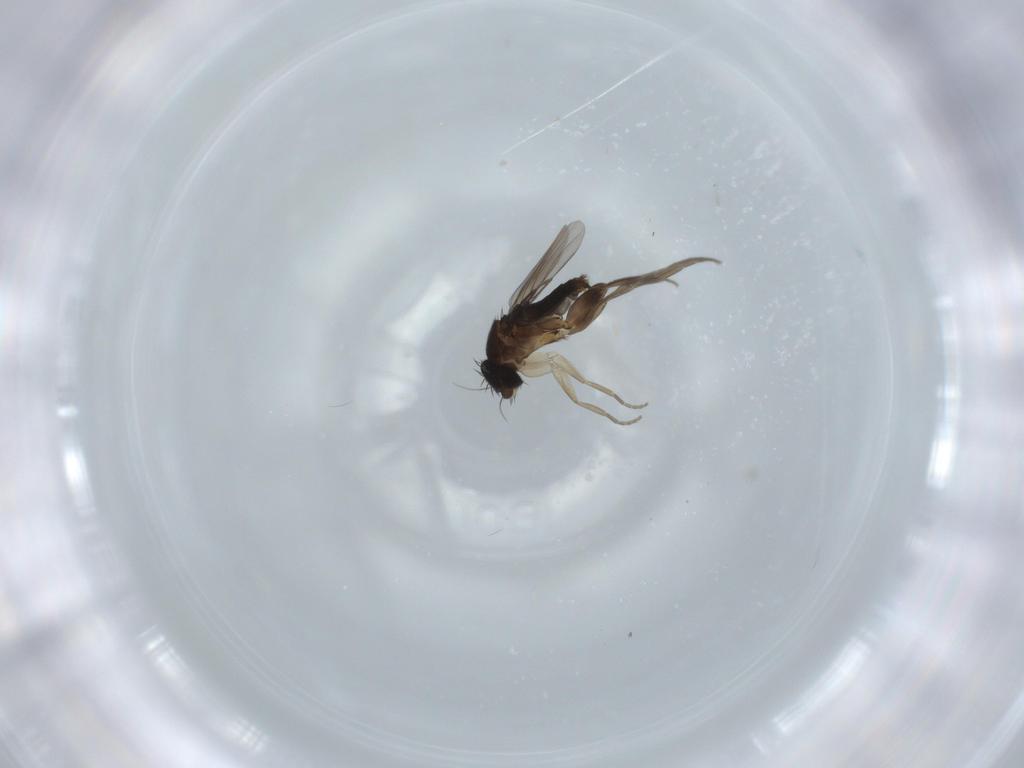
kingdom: Animalia
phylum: Arthropoda
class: Insecta
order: Diptera
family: Phoridae
